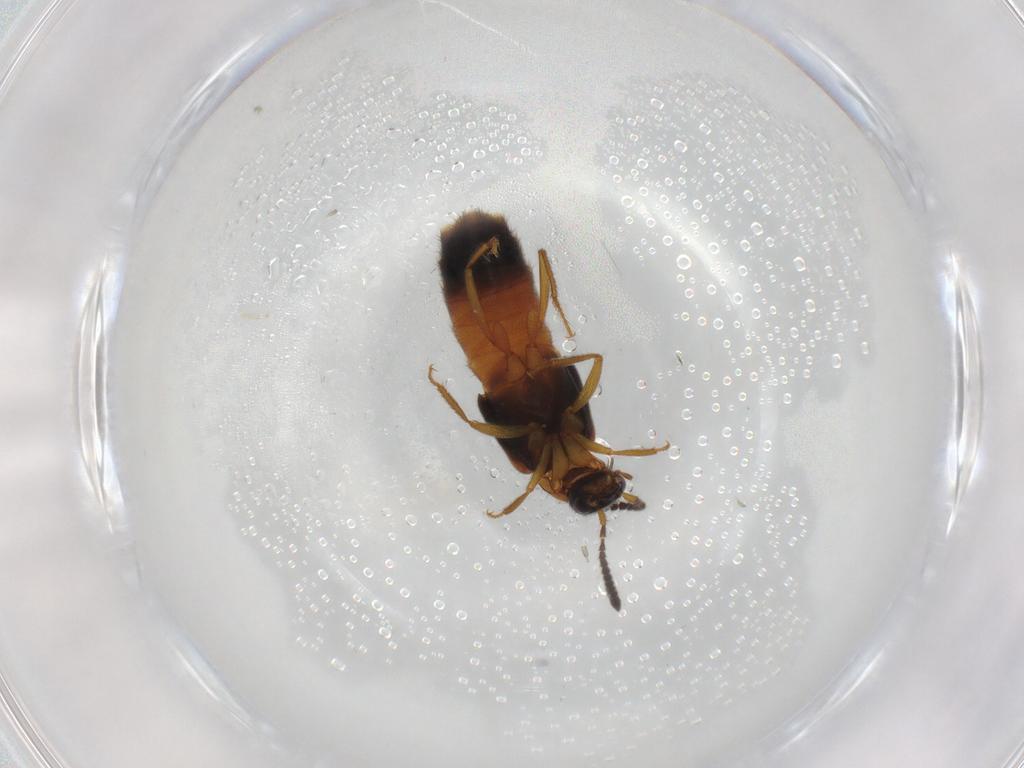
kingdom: Animalia
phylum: Arthropoda
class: Insecta
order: Coleoptera
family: Staphylinidae
